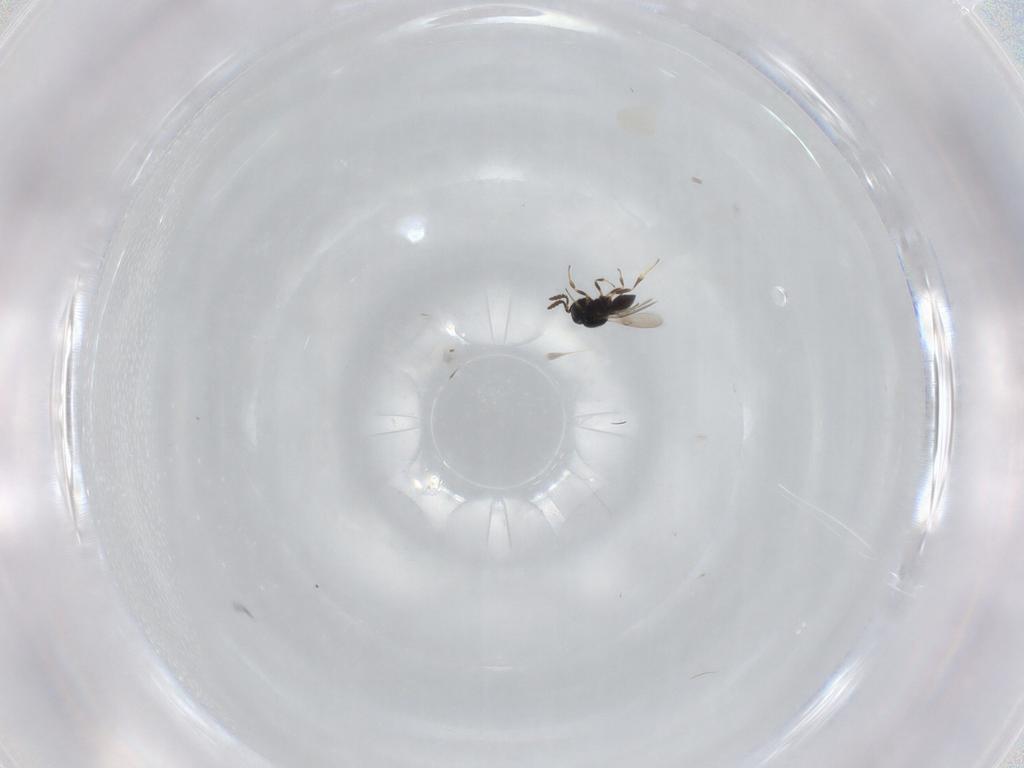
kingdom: Animalia
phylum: Arthropoda
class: Insecta
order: Hymenoptera
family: Scelionidae
